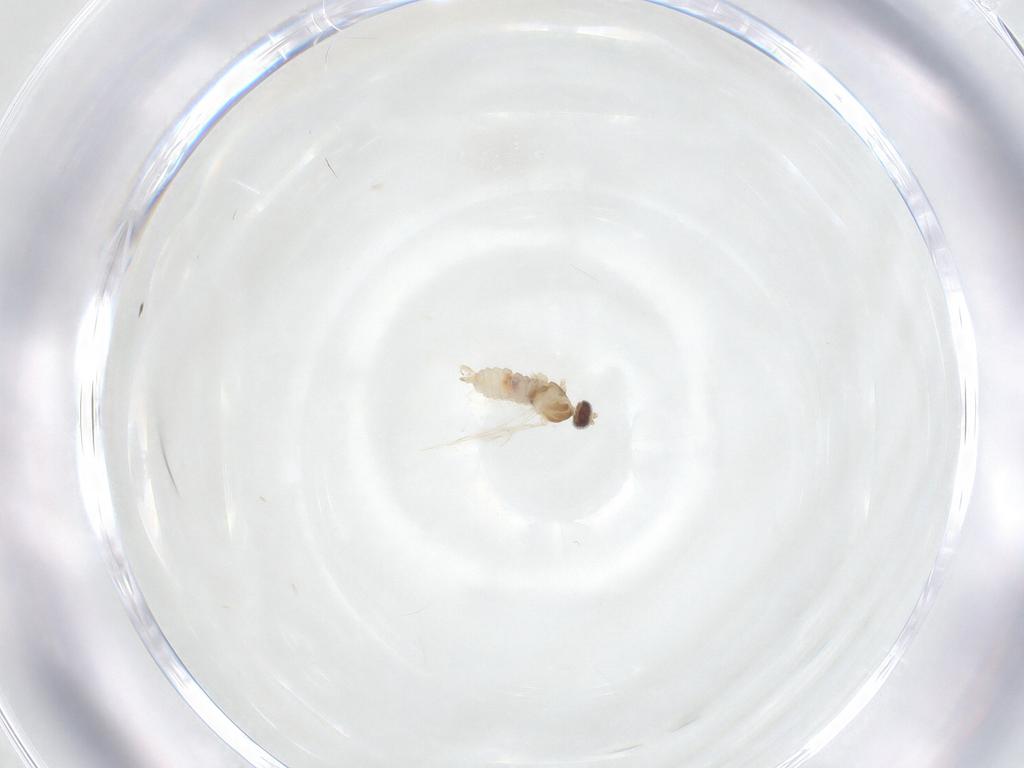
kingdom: Animalia
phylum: Arthropoda
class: Insecta
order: Diptera
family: Cecidomyiidae
